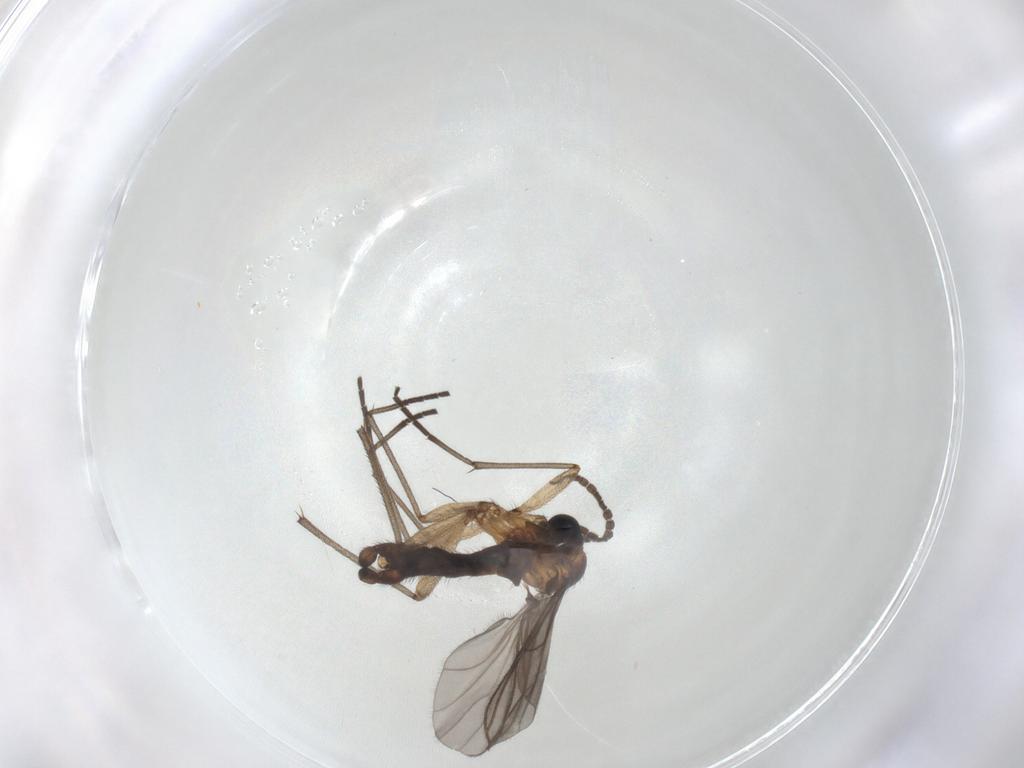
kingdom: Animalia
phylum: Arthropoda
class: Insecta
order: Diptera
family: Sciaridae
